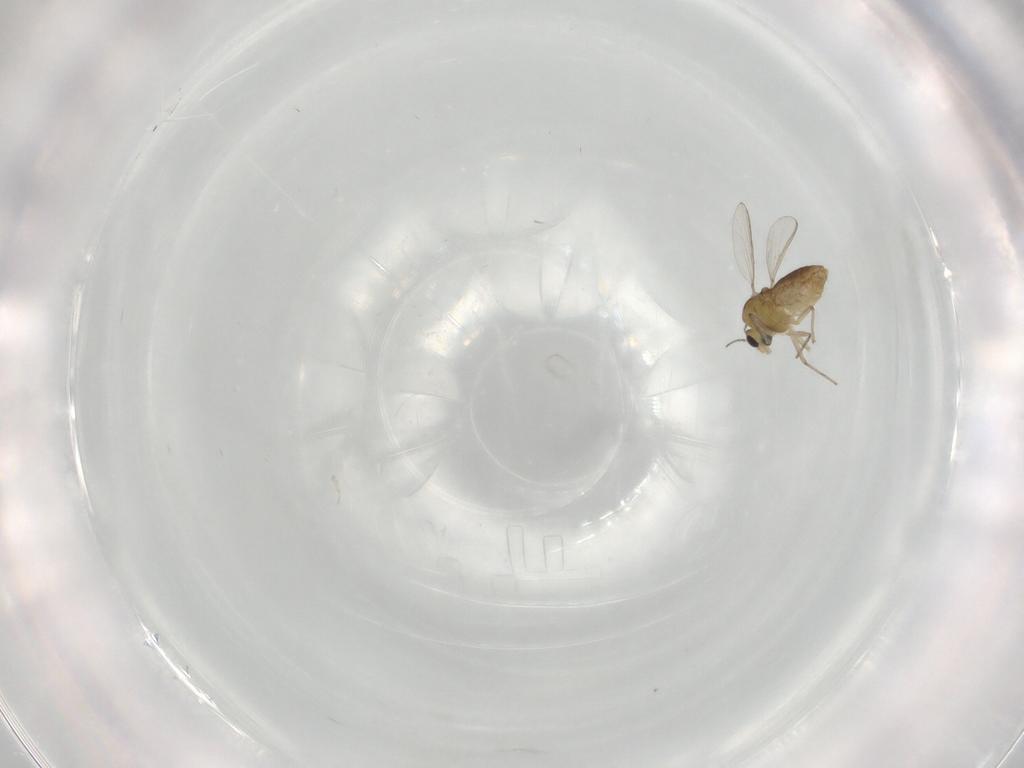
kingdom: Animalia
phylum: Arthropoda
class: Insecta
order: Diptera
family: Chironomidae
